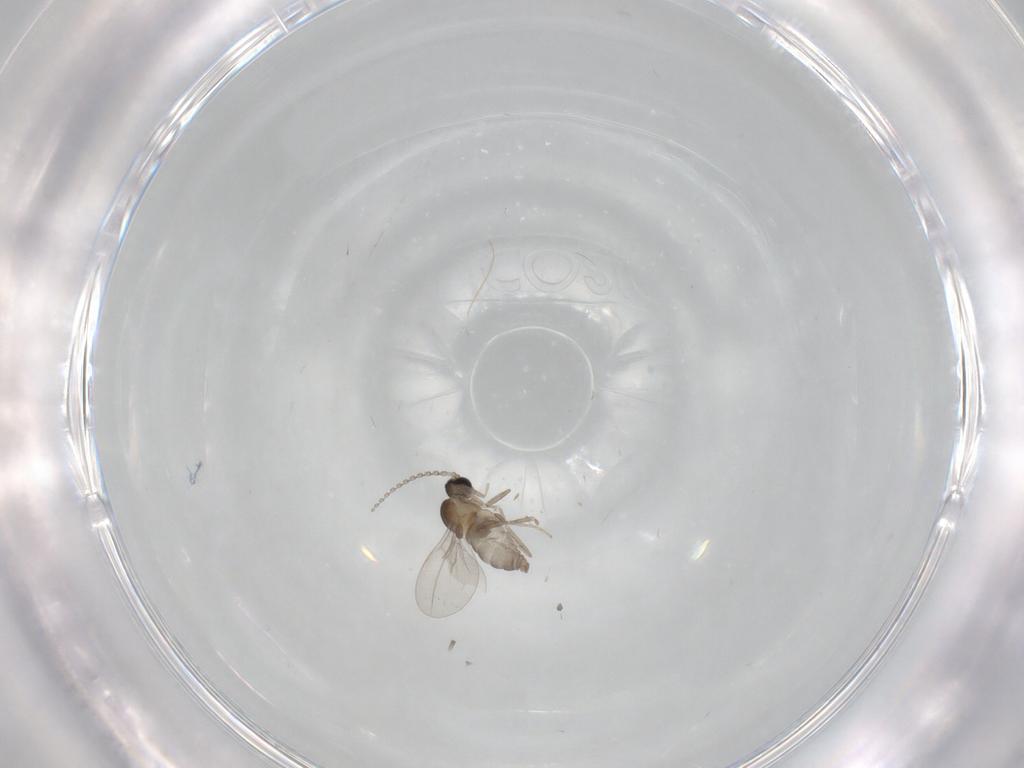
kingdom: Animalia
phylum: Arthropoda
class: Insecta
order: Diptera
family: Cecidomyiidae
